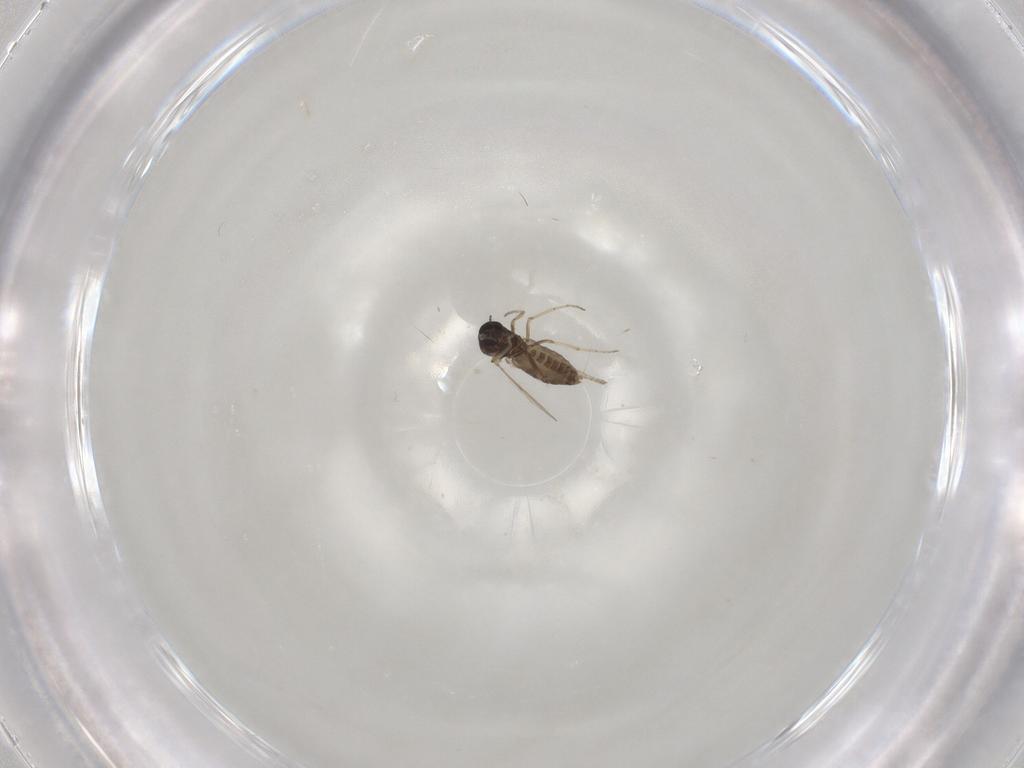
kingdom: Animalia
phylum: Arthropoda
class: Insecta
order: Diptera
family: Ceratopogonidae
